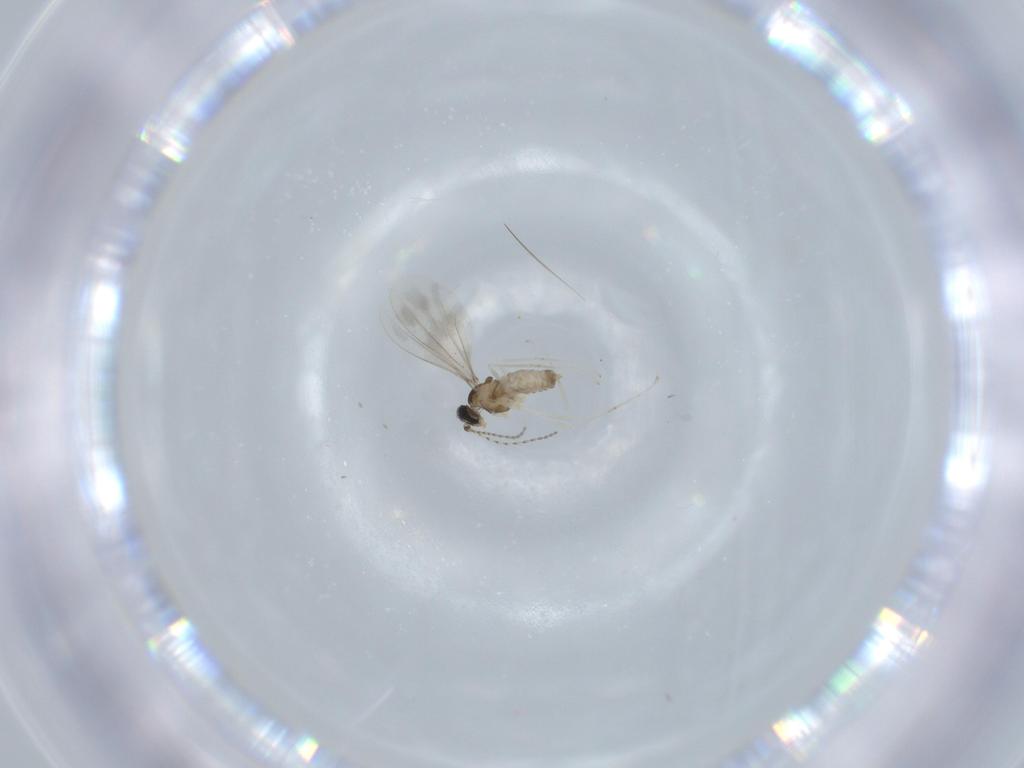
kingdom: Animalia
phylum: Arthropoda
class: Insecta
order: Diptera
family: Cecidomyiidae
